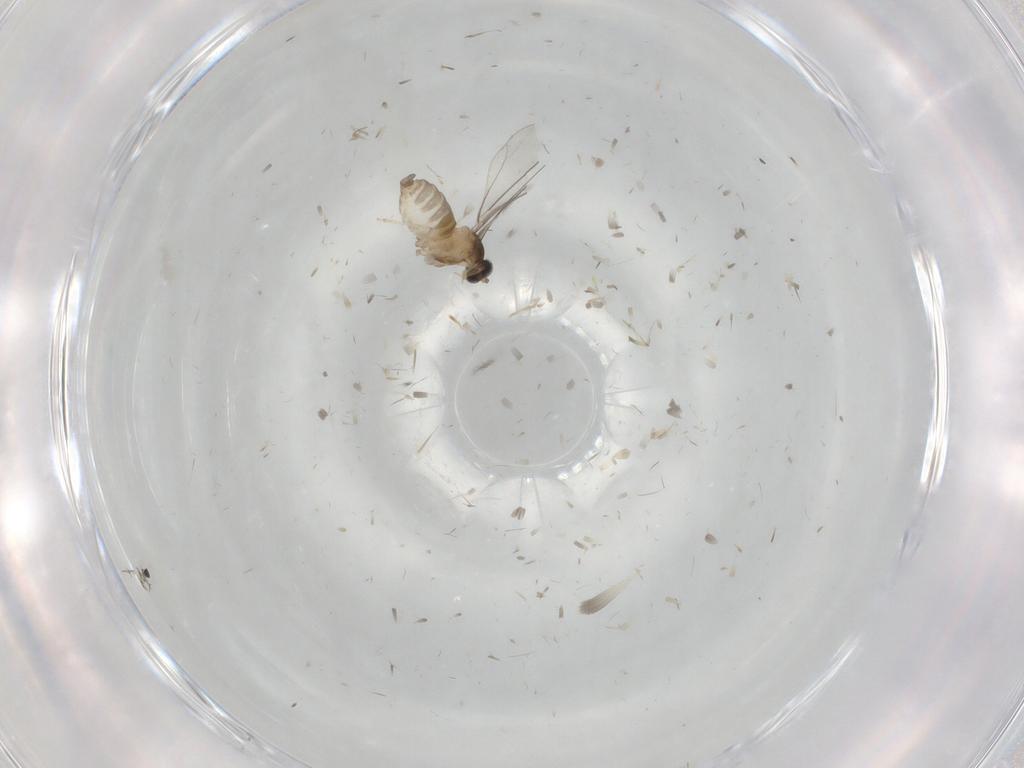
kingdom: Animalia
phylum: Arthropoda
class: Insecta
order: Diptera
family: Cecidomyiidae
